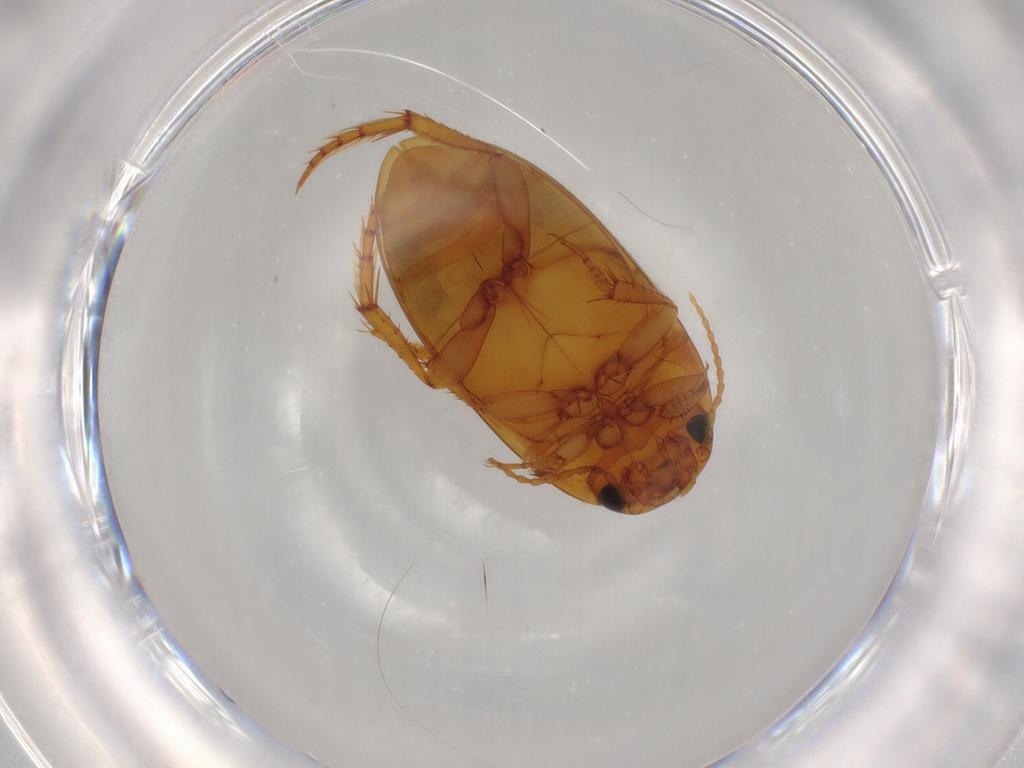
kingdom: Animalia
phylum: Arthropoda
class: Insecta
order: Coleoptera
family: Dytiscidae
